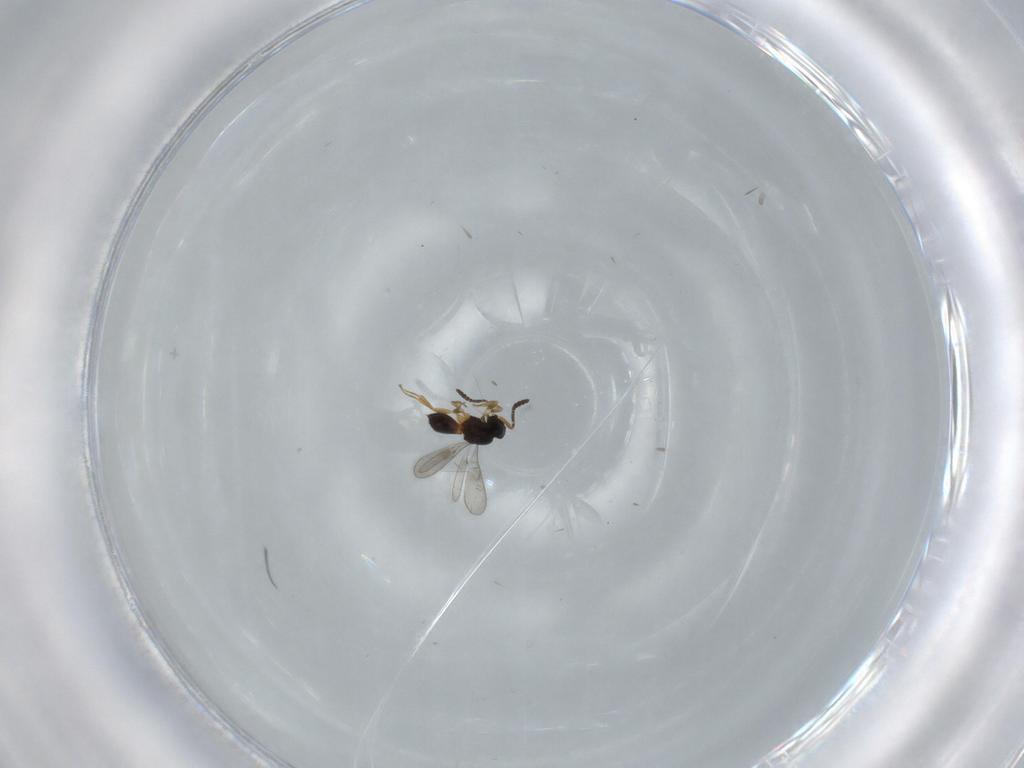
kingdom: Animalia
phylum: Arthropoda
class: Insecta
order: Hymenoptera
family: Scelionidae
